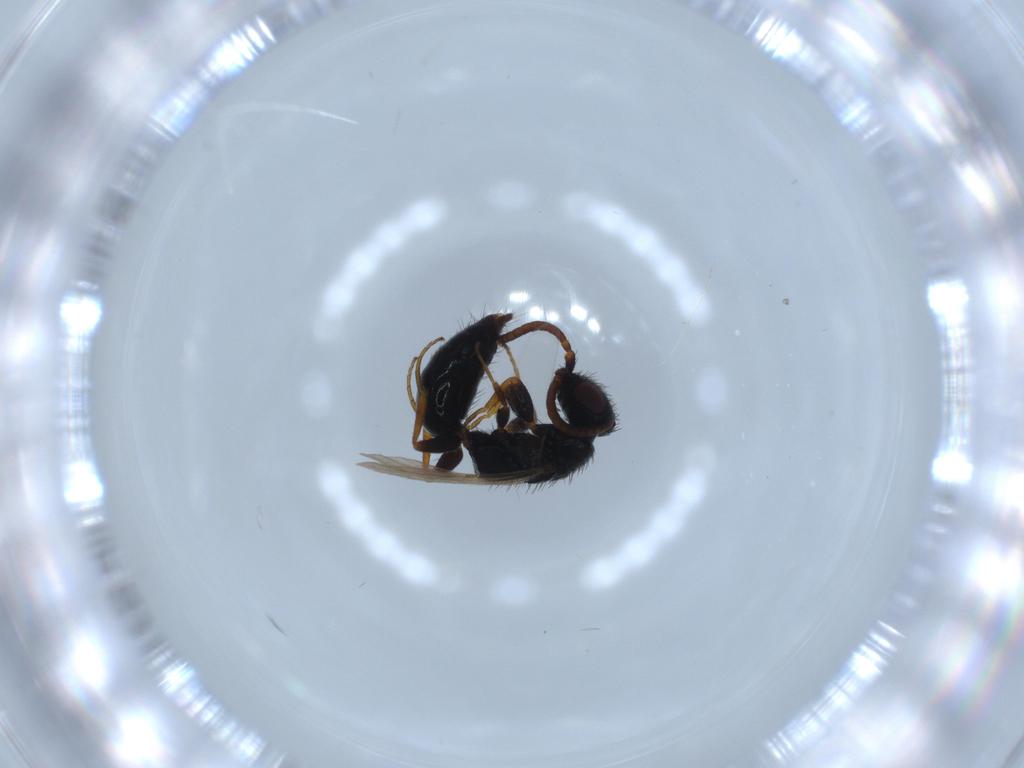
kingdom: Animalia
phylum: Arthropoda
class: Insecta
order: Hymenoptera
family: Bethylidae
